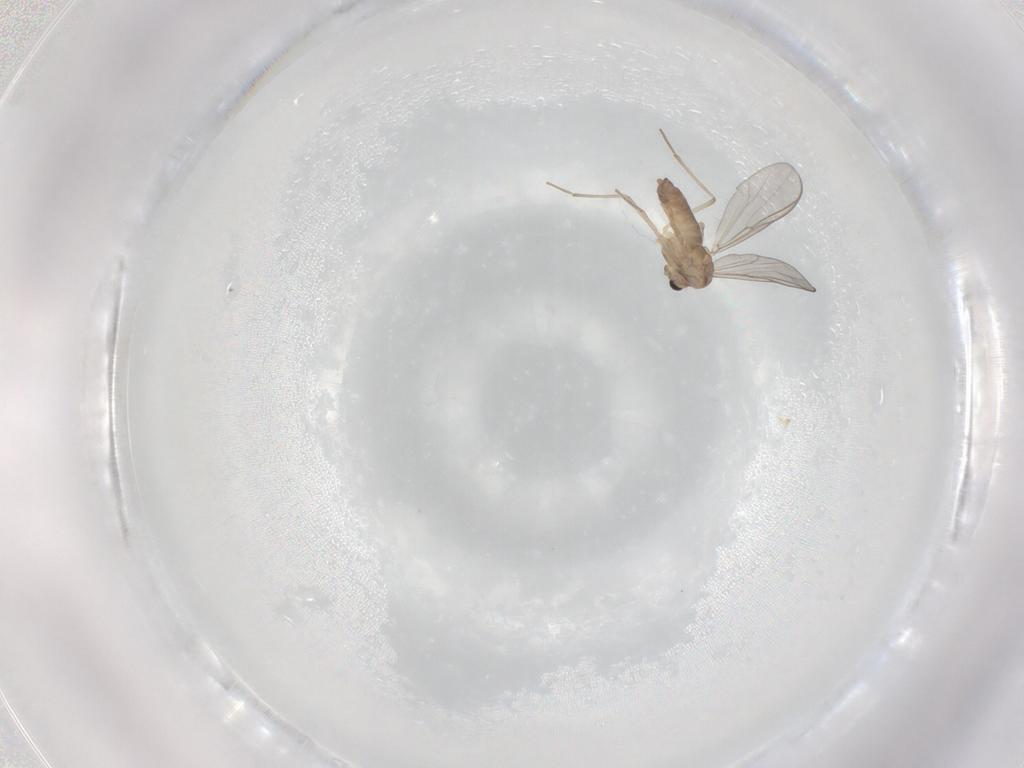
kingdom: Animalia
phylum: Arthropoda
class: Insecta
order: Diptera
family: Chironomidae
